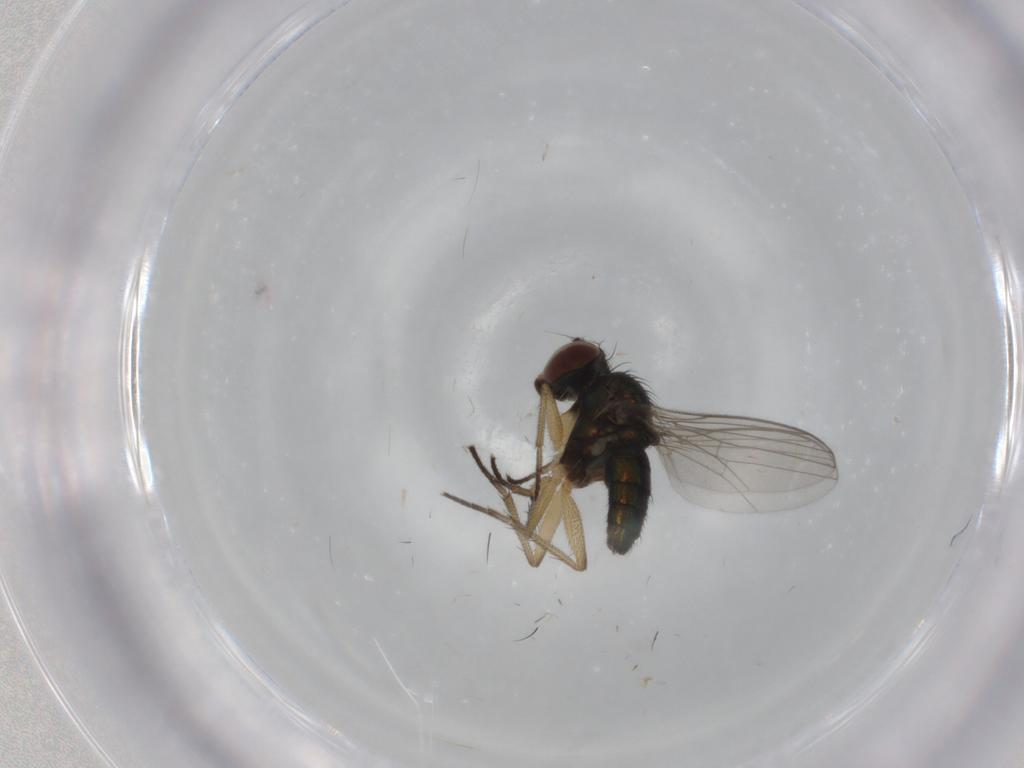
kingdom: Animalia
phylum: Arthropoda
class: Insecta
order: Diptera
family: Dolichopodidae
